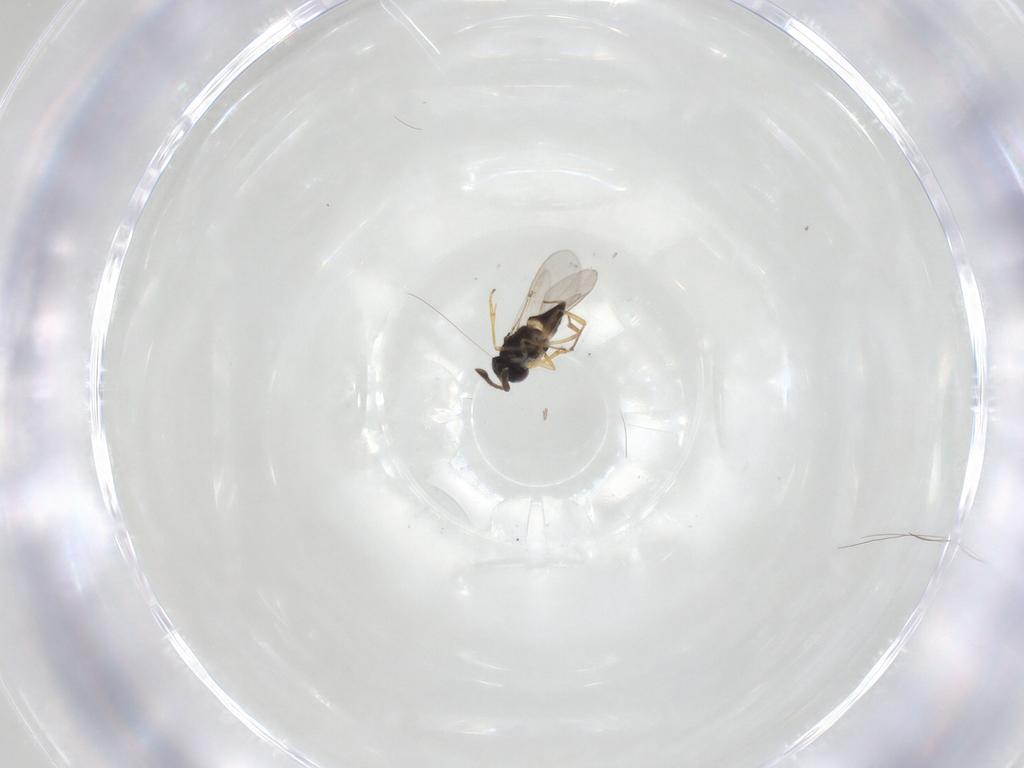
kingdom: Animalia
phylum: Arthropoda
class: Insecta
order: Hymenoptera
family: Encyrtidae
